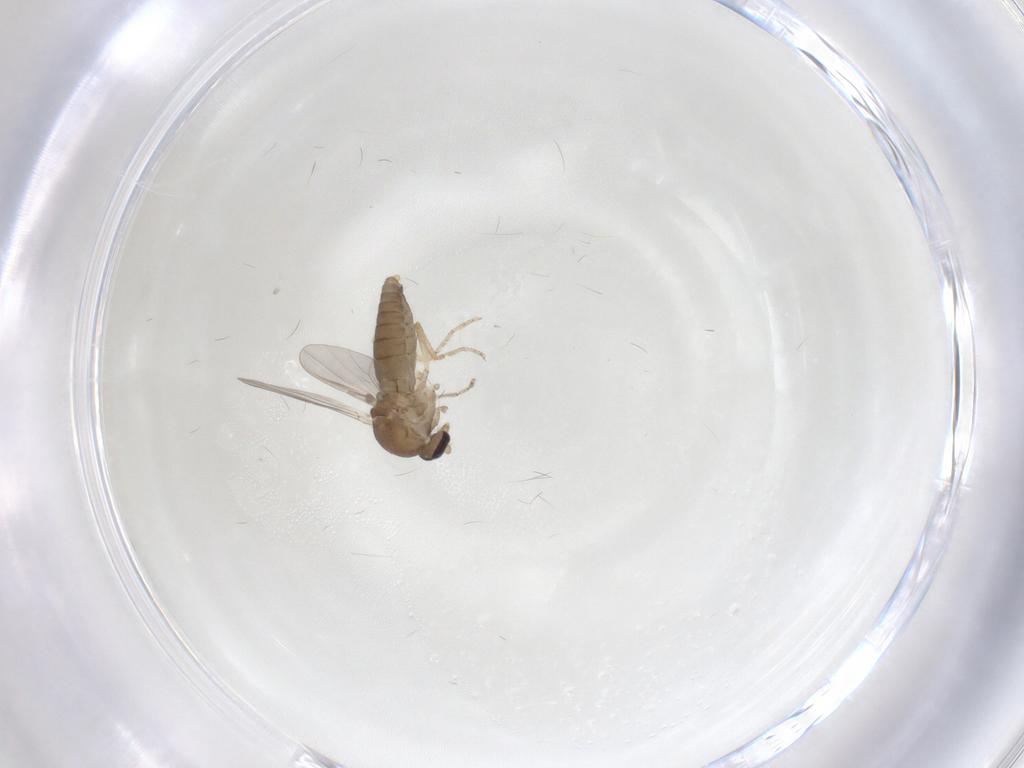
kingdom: Animalia
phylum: Arthropoda
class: Insecta
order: Diptera
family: Ceratopogonidae
